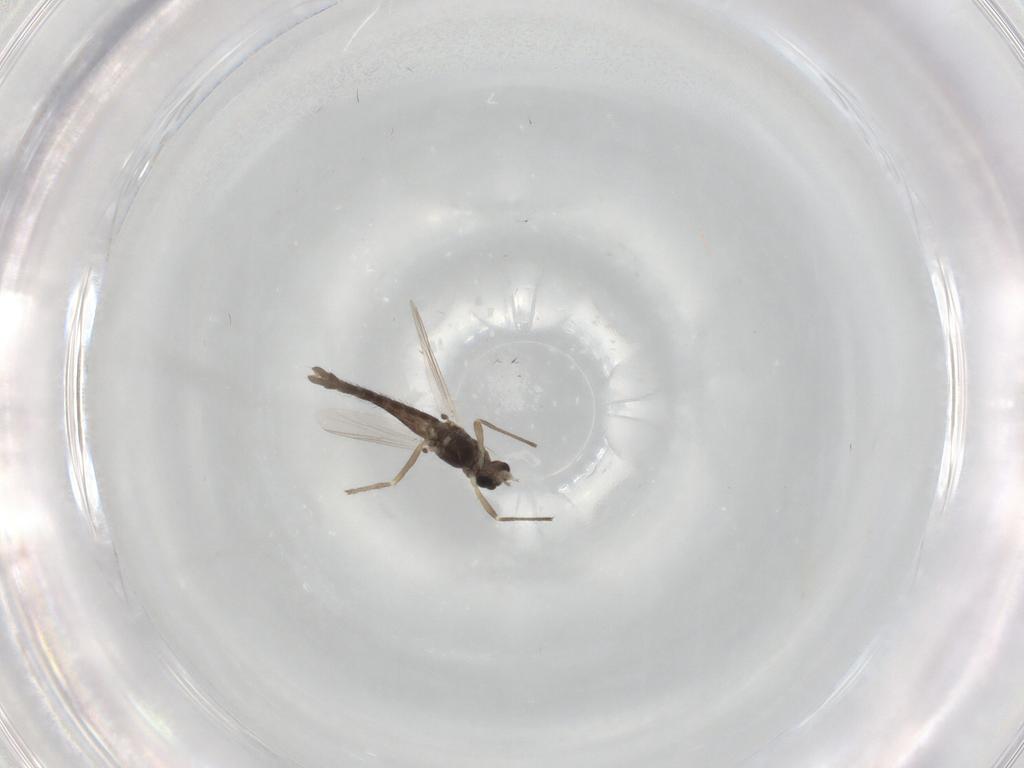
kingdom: Animalia
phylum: Arthropoda
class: Insecta
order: Diptera
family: Chironomidae
